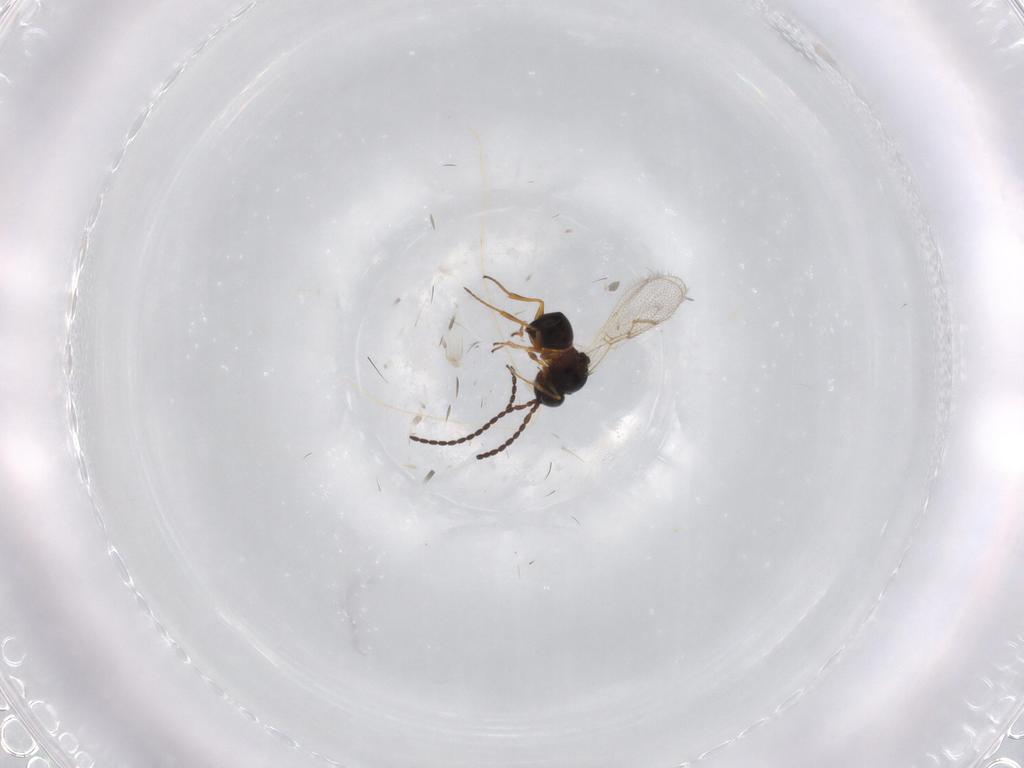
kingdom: Animalia
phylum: Arthropoda
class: Insecta
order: Hymenoptera
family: Figitidae
